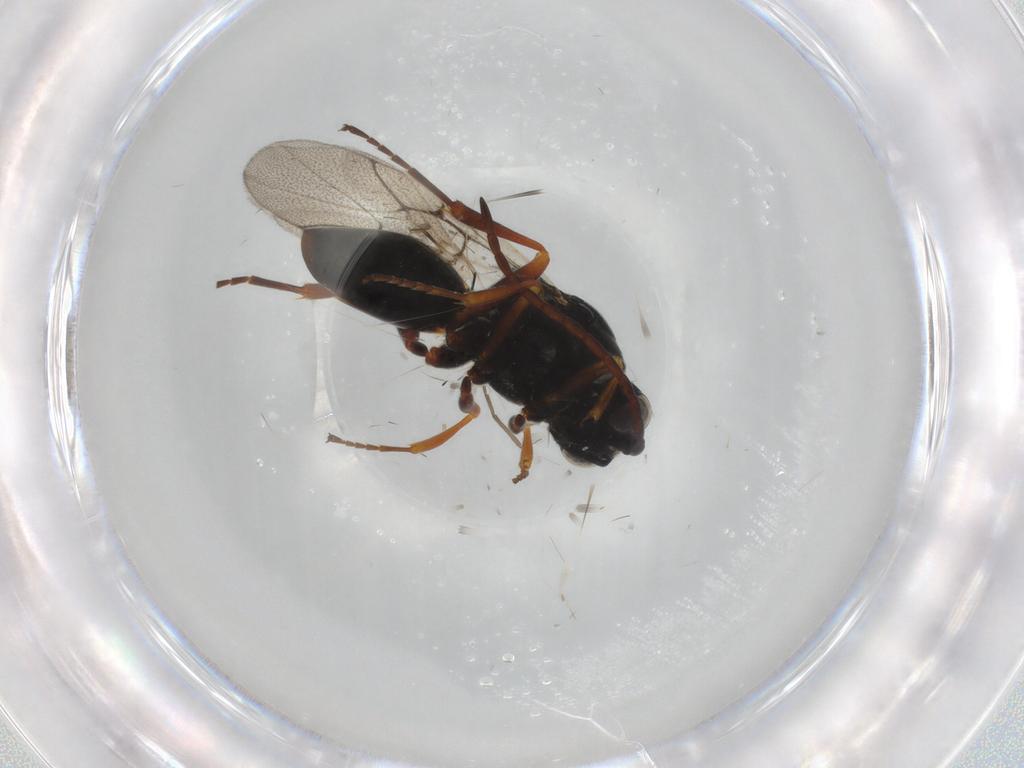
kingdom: Animalia
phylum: Arthropoda
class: Insecta
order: Hymenoptera
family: Figitidae
